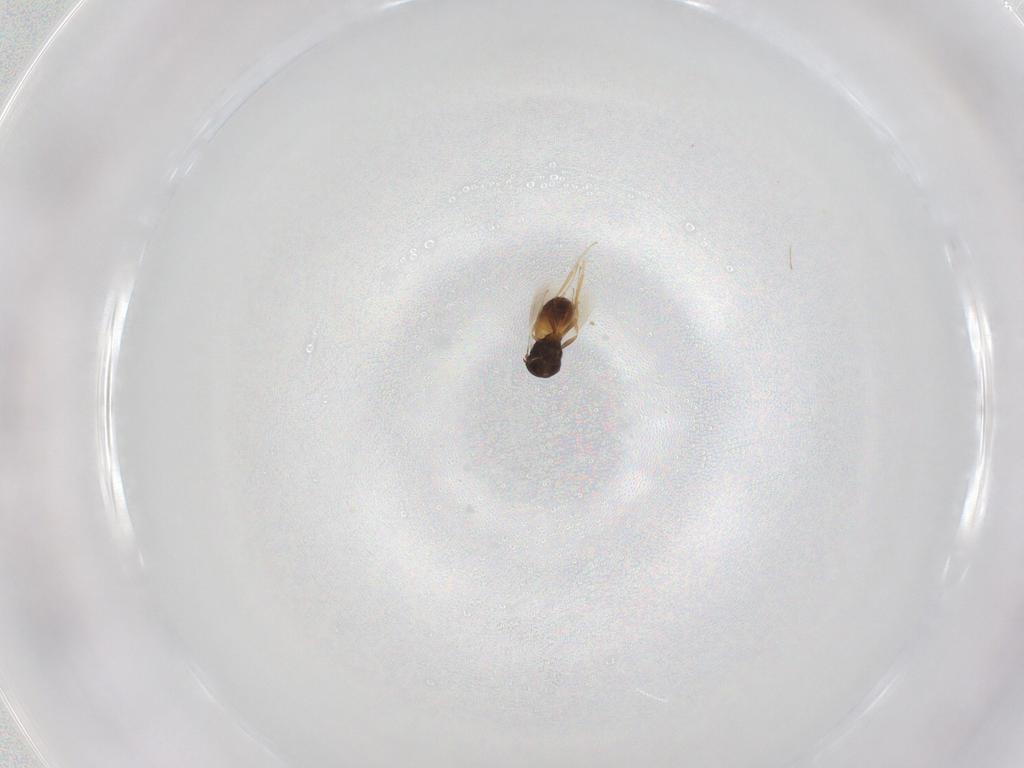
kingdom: Animalia
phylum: Arthropoda
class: Insecta
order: Hymenoptera
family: Scelionidae
